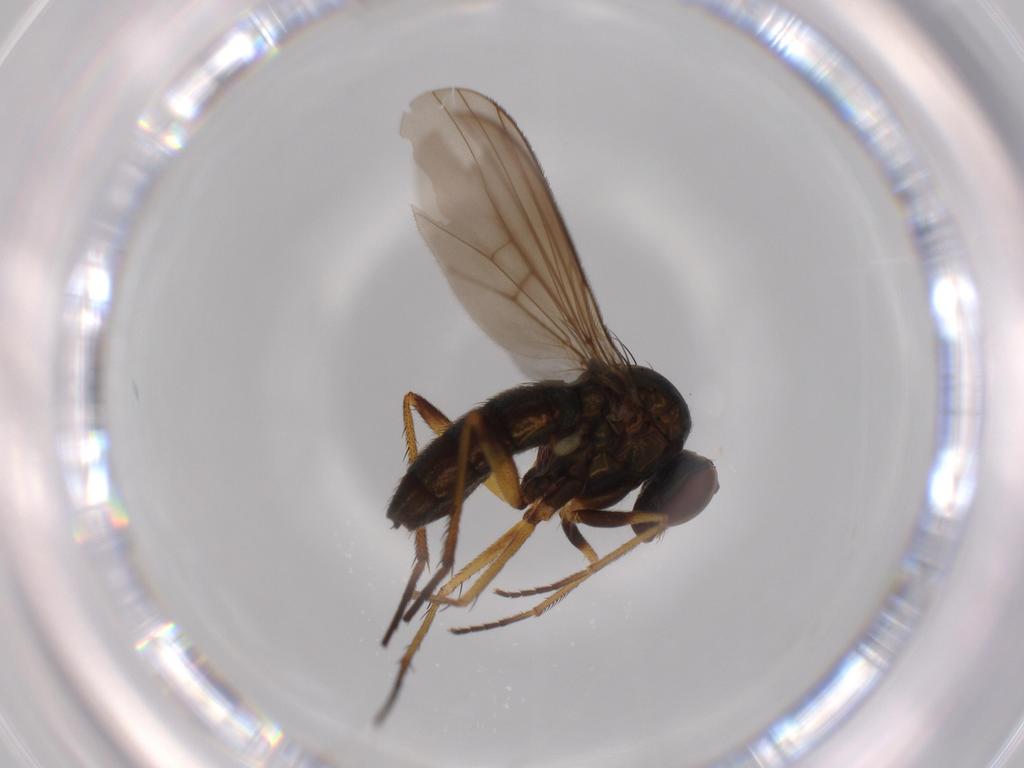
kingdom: Animalia
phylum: Arthropoda
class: Insecta
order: Diptera
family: Dolichopodidae
